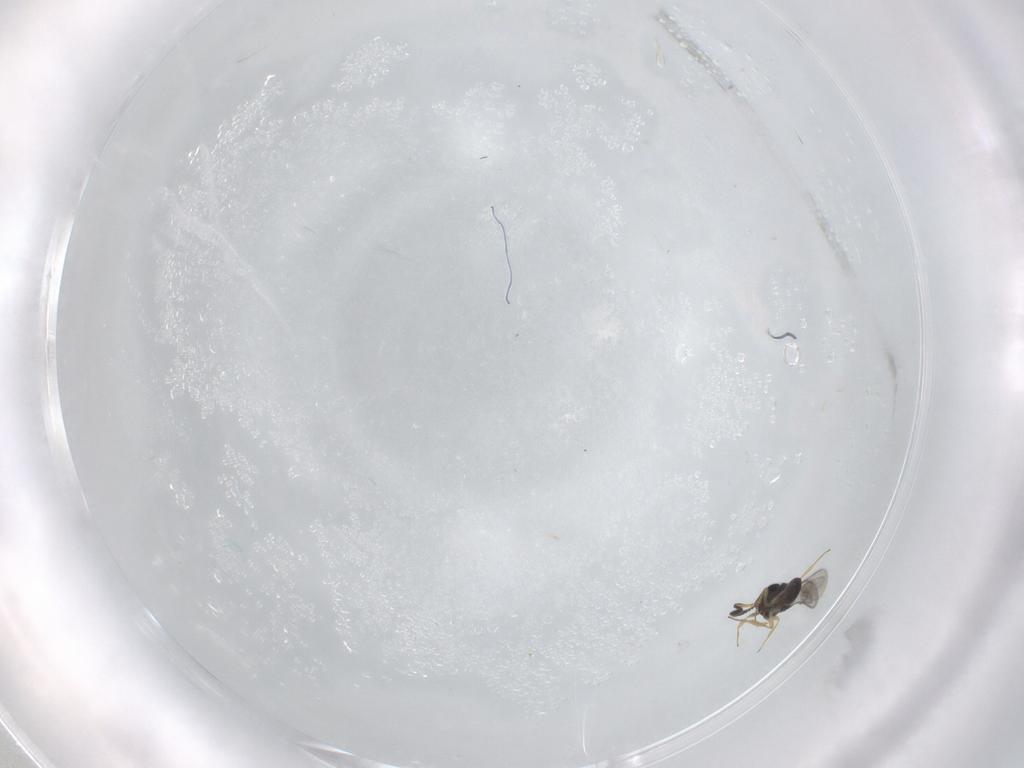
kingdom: Animalia
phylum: Arthropoda
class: Insecta
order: Hymenoptera
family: Scelionidae
